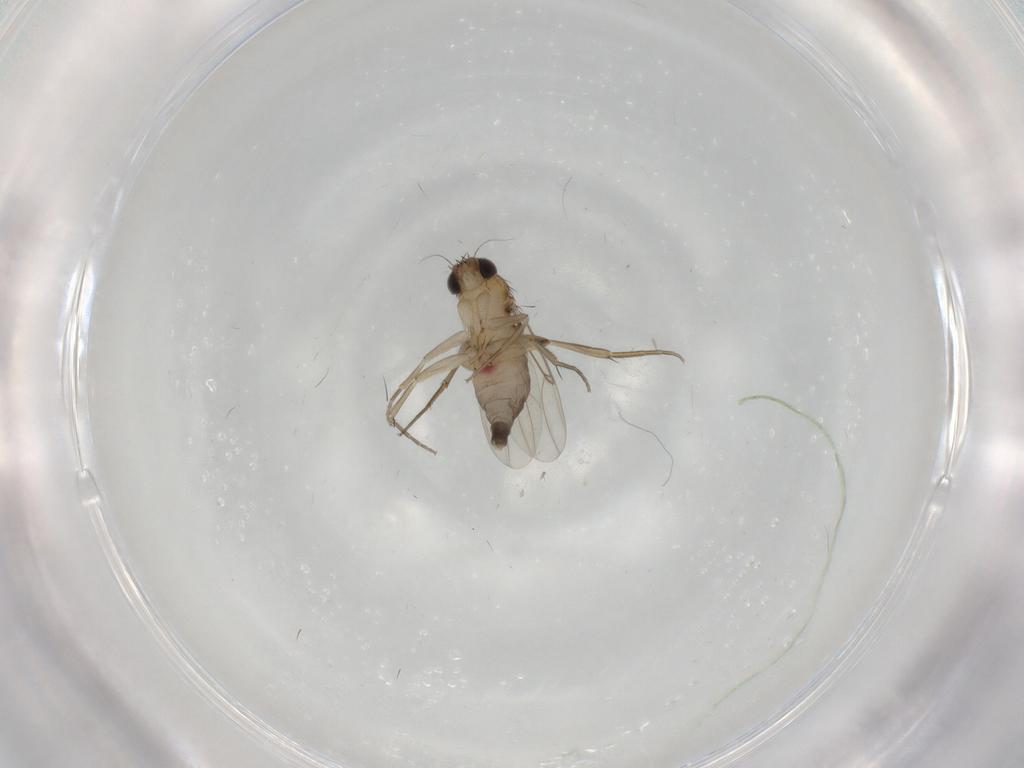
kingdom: Animalia
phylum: Arthropoda
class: Insecta
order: Diptera
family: Phoridae
